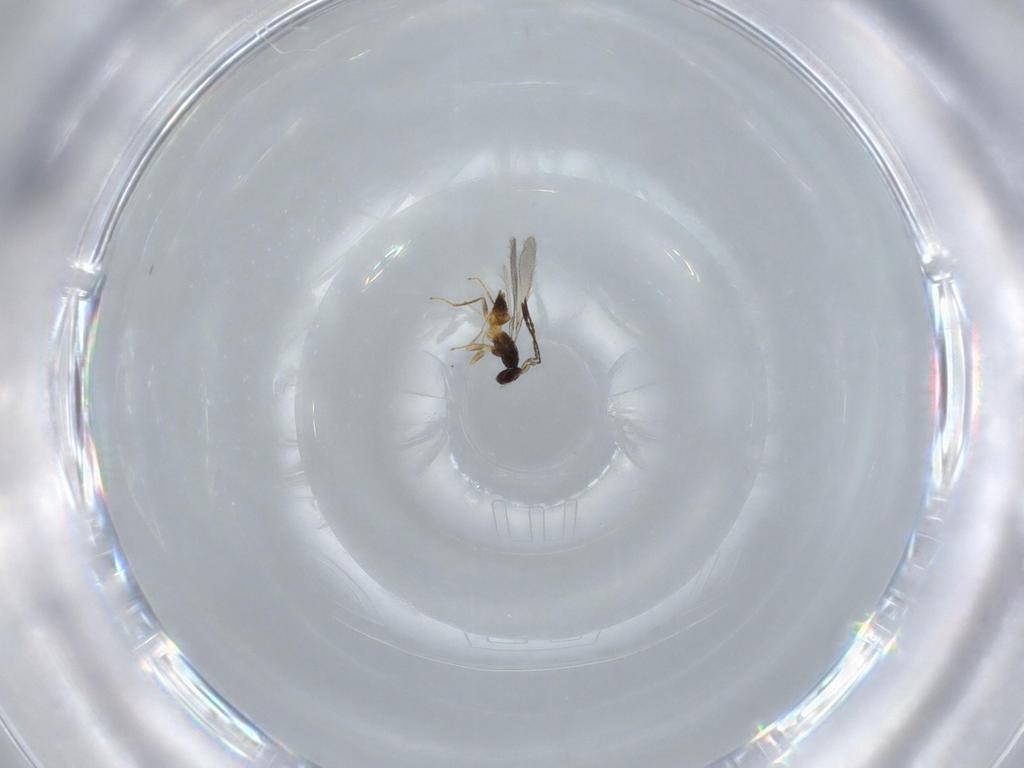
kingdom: Animalia
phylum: Arthropoda
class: Insecta
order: Hymenoptera
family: Mymaridae
